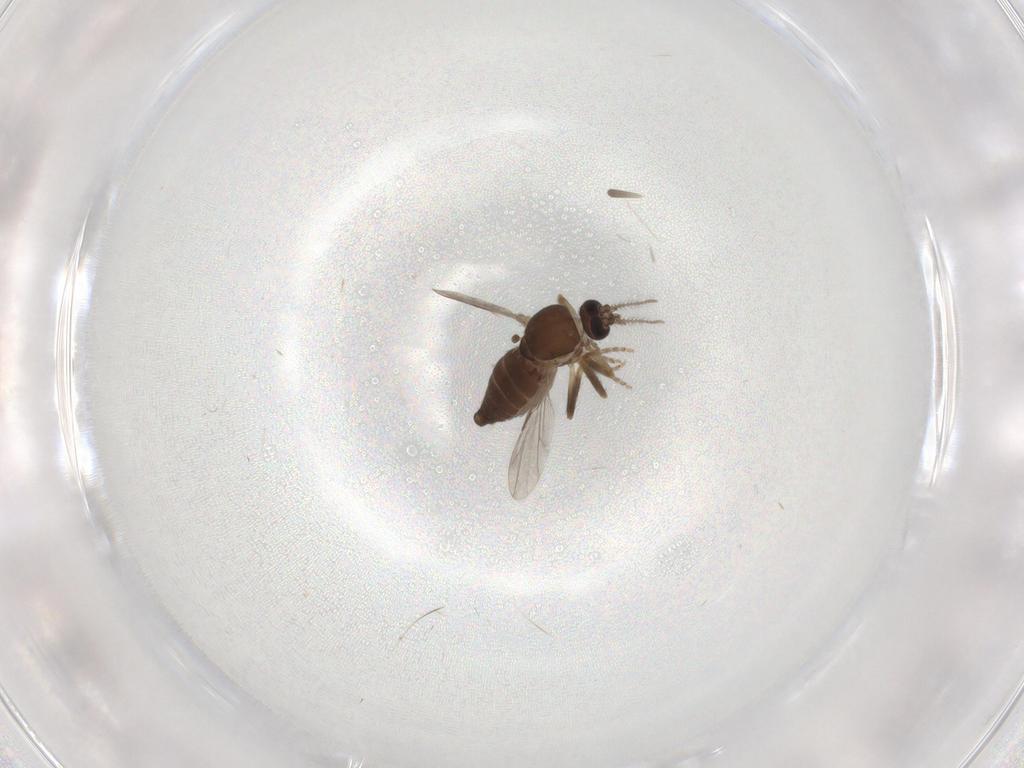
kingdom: Animalia
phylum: Arthropoda
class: Insecta
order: Diptera
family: Ceratopogonidae
